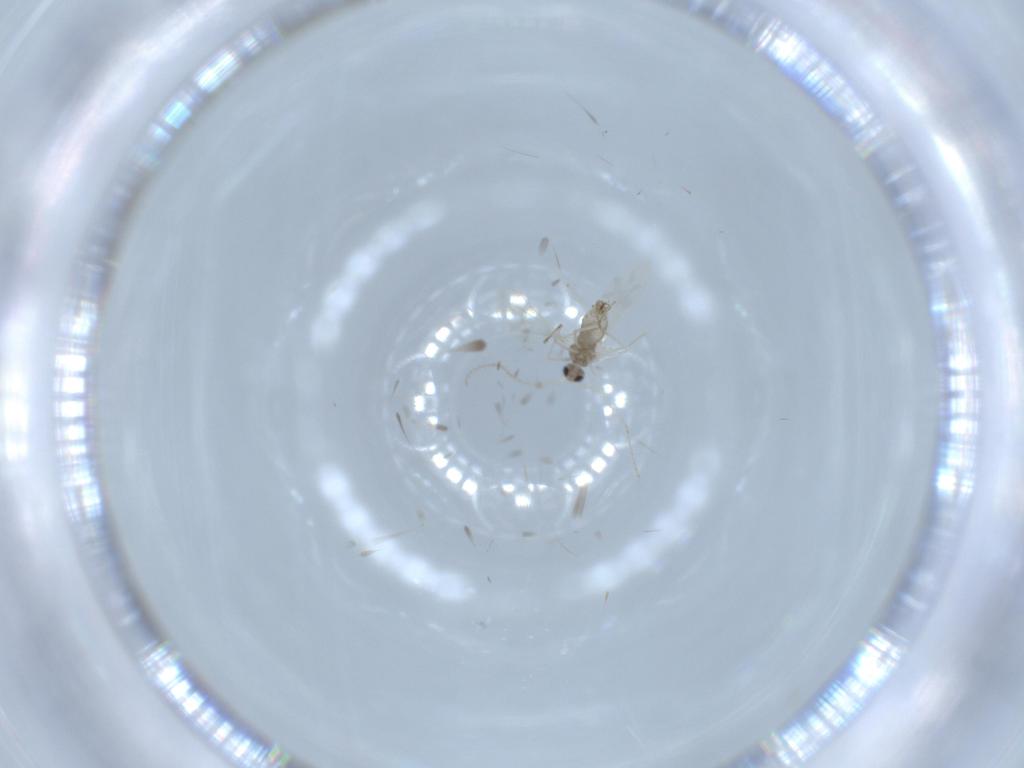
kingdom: Animalia
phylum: Arthropoda
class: Insecta
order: Diptera
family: Cecidomyiidae
